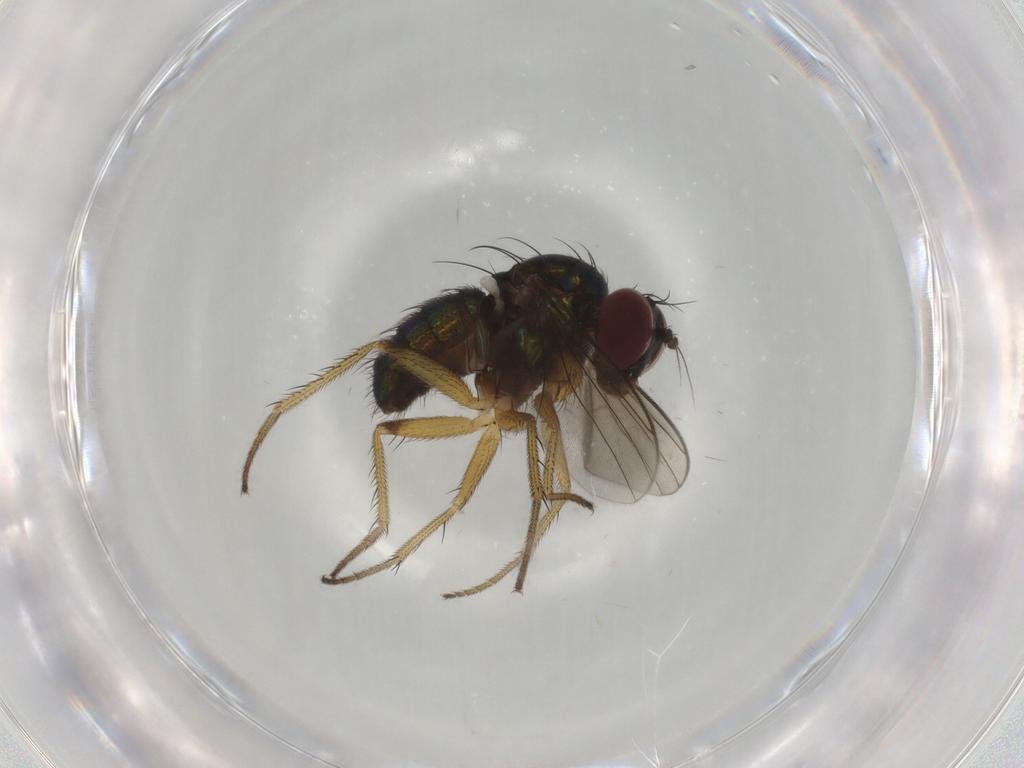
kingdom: Animalia
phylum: Arthropoda
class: Insecta
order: Diptera
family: Dolichopodidae
